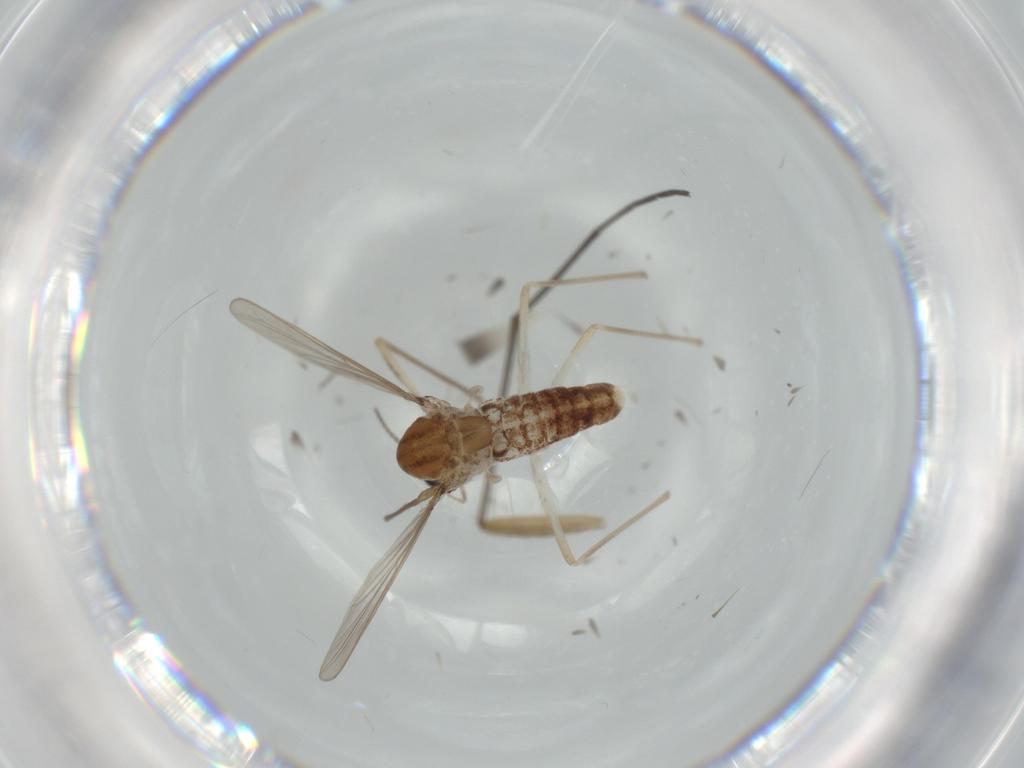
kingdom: Animalia
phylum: Arthropoda
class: Insecta
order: Diptera
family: Chironomidae
